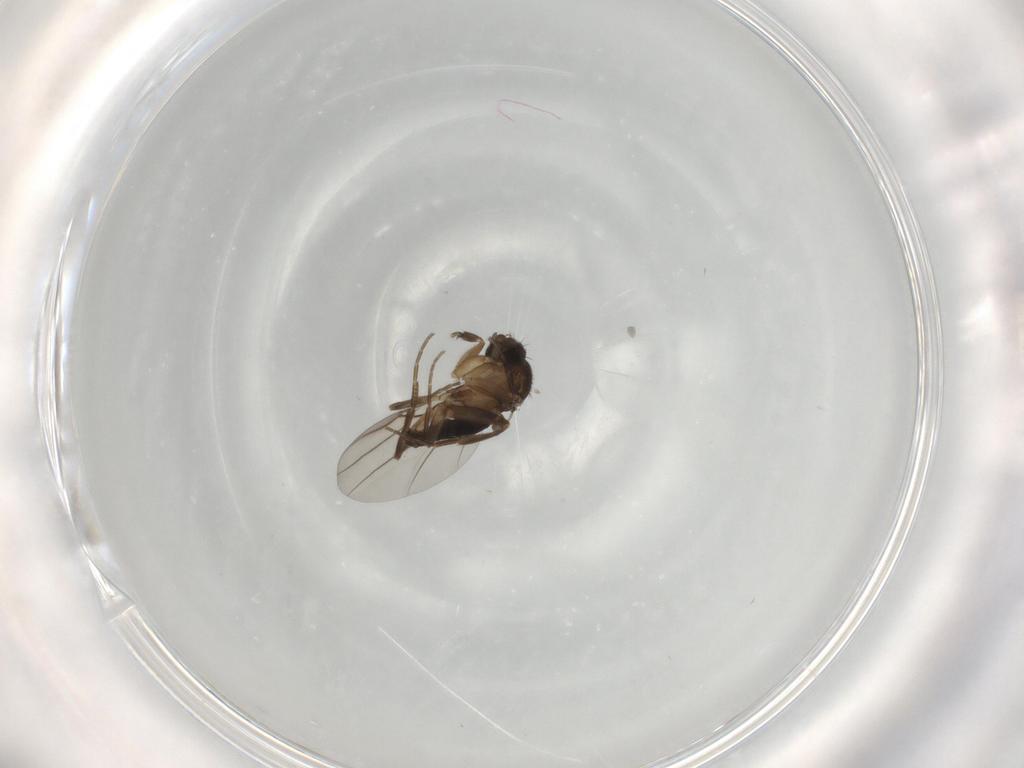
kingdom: Animalia
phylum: Arthropoda
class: Insecta
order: Diptera
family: Phoridae
